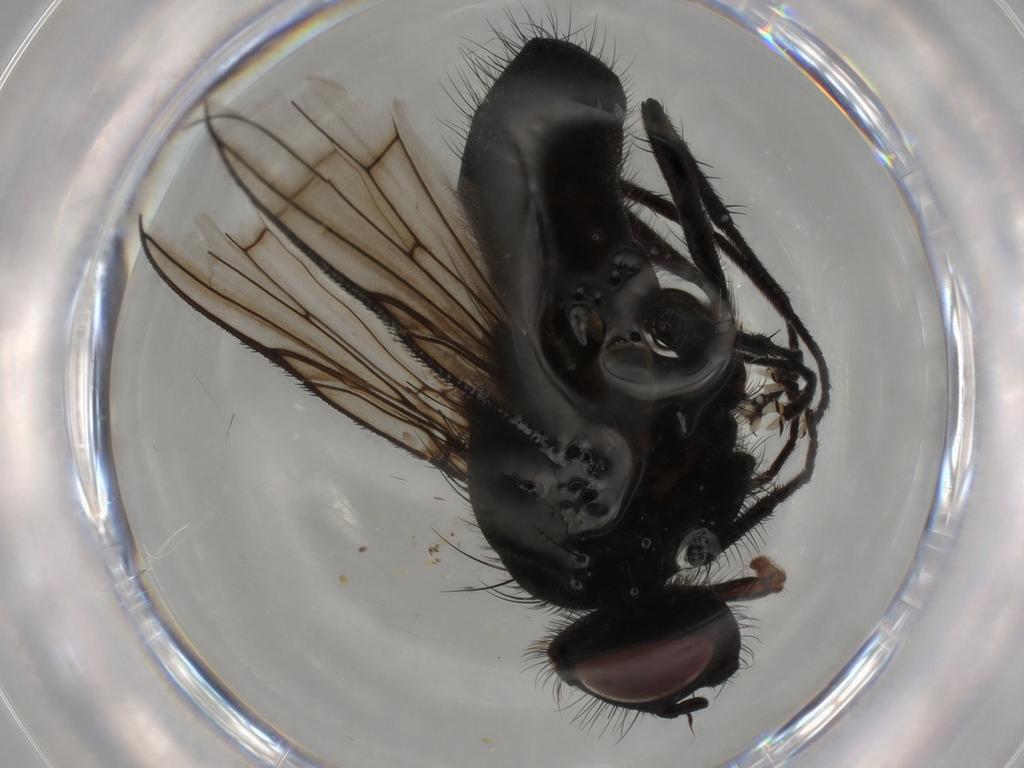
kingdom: Animalia
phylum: Arthropoda
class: Insecta
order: Diptera
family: Muscidae
